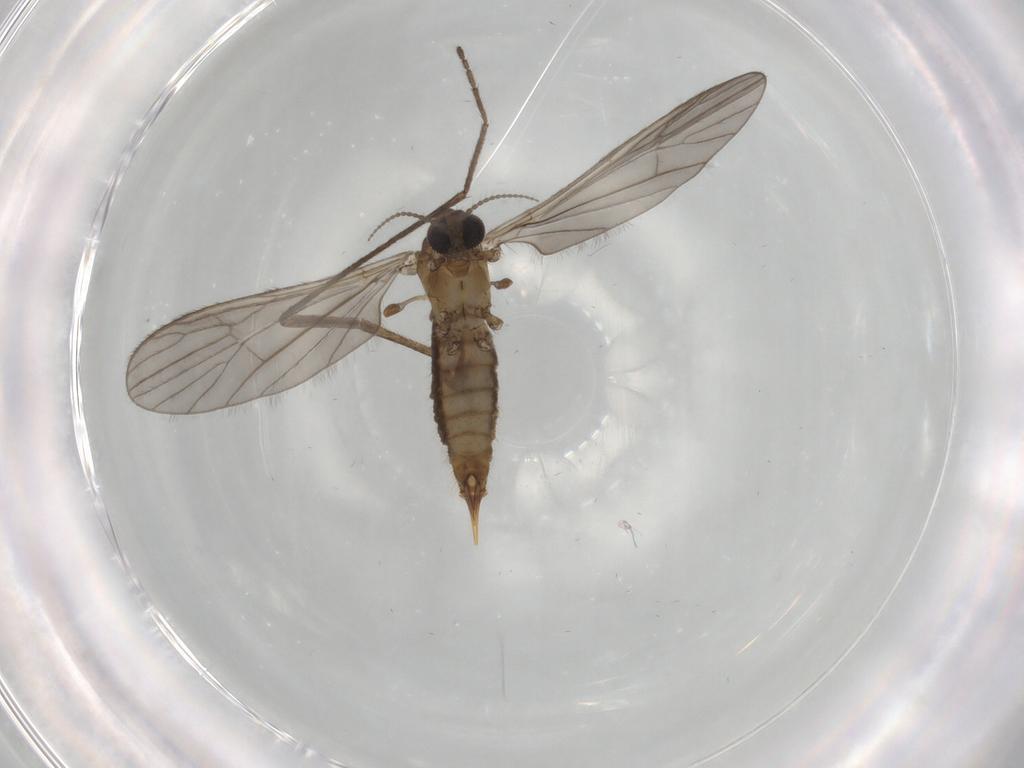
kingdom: Animalia
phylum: Arthropoda
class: Insecta
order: Diptera
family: Limoniidae
